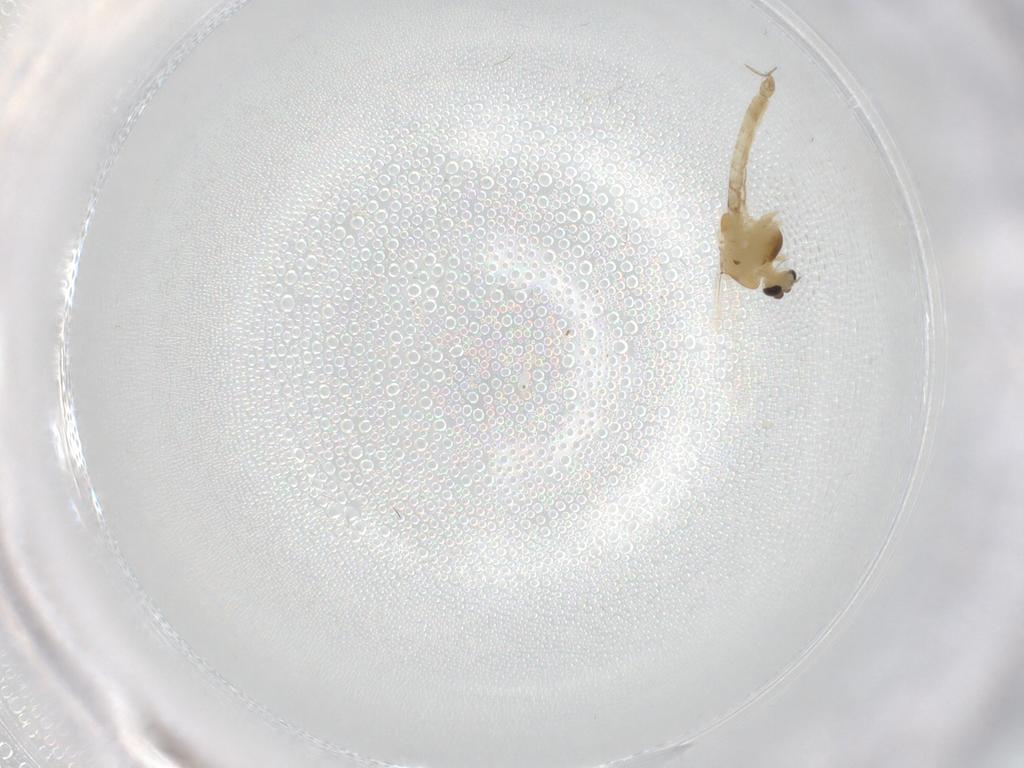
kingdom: Animalia
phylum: Arthropoda
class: Insecta
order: Diptera
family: Chironomidae
